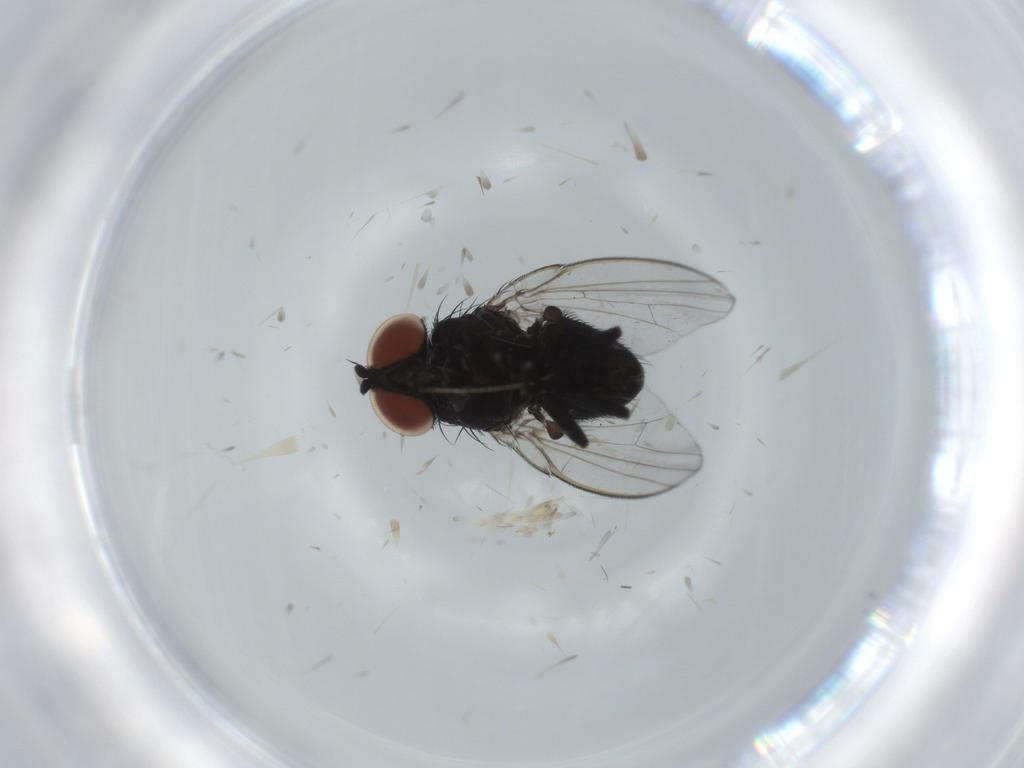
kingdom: Animalia
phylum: Arthropoda
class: Insecta
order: Diptera
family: Milichiidae
